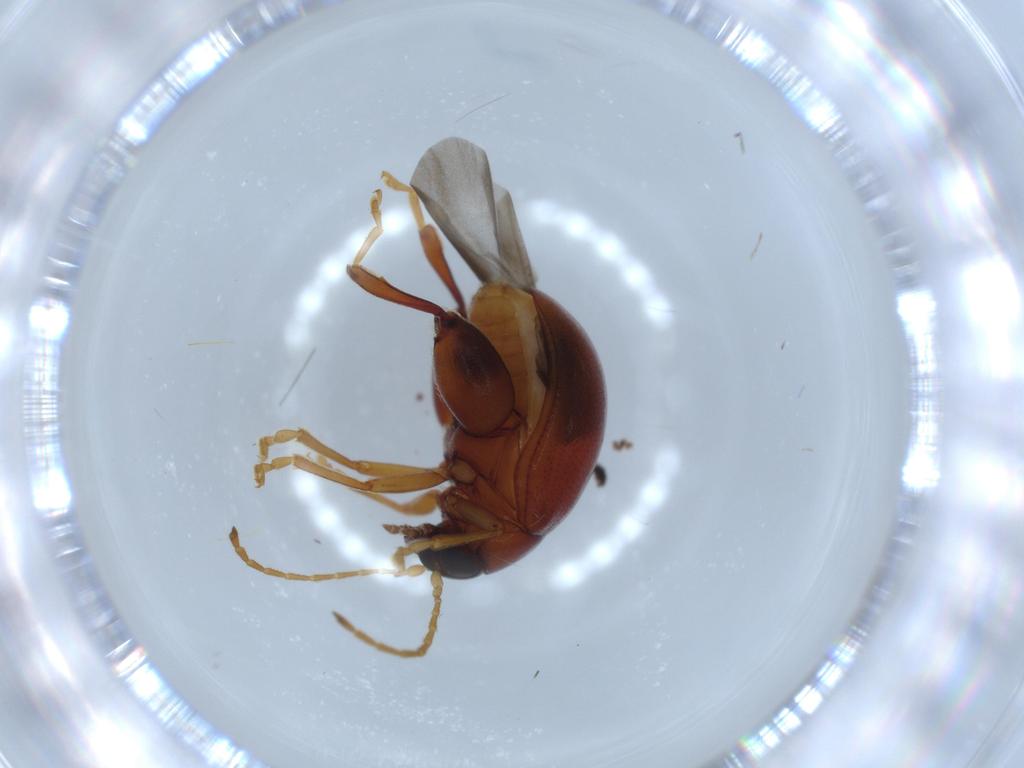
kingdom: Animalia
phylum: Arthropoda
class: Insecta
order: Coleoptera
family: Chrysomelidae
